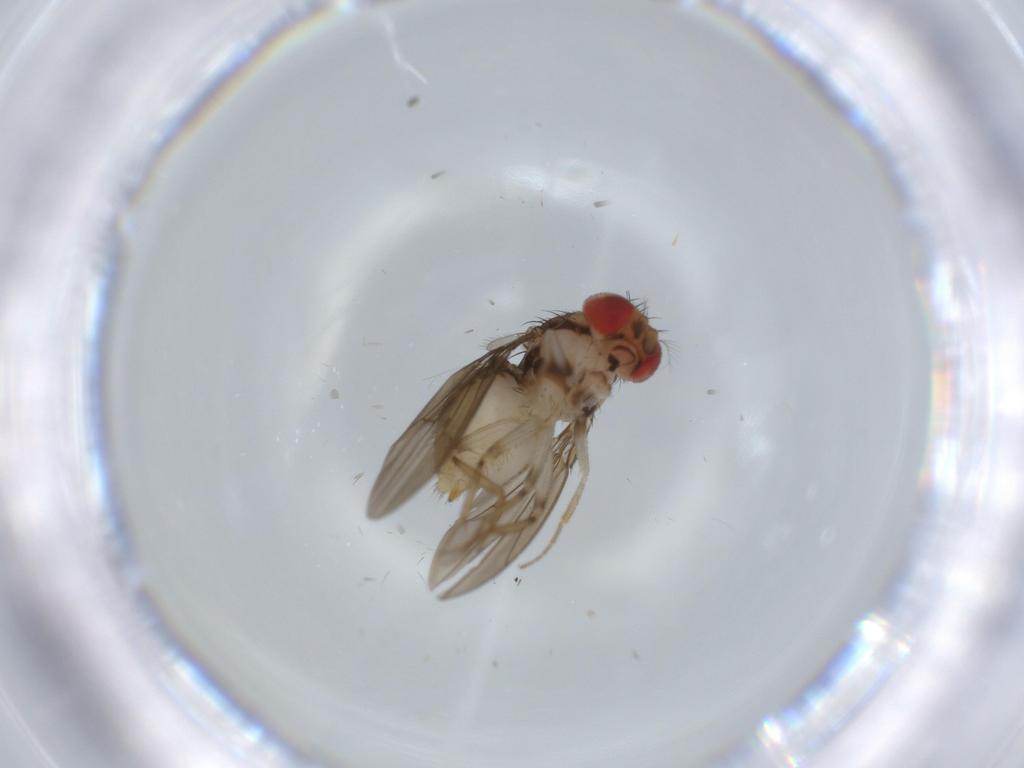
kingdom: Animalia
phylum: Arthropoda
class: Insecta
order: Diptera
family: Drosophilidae
